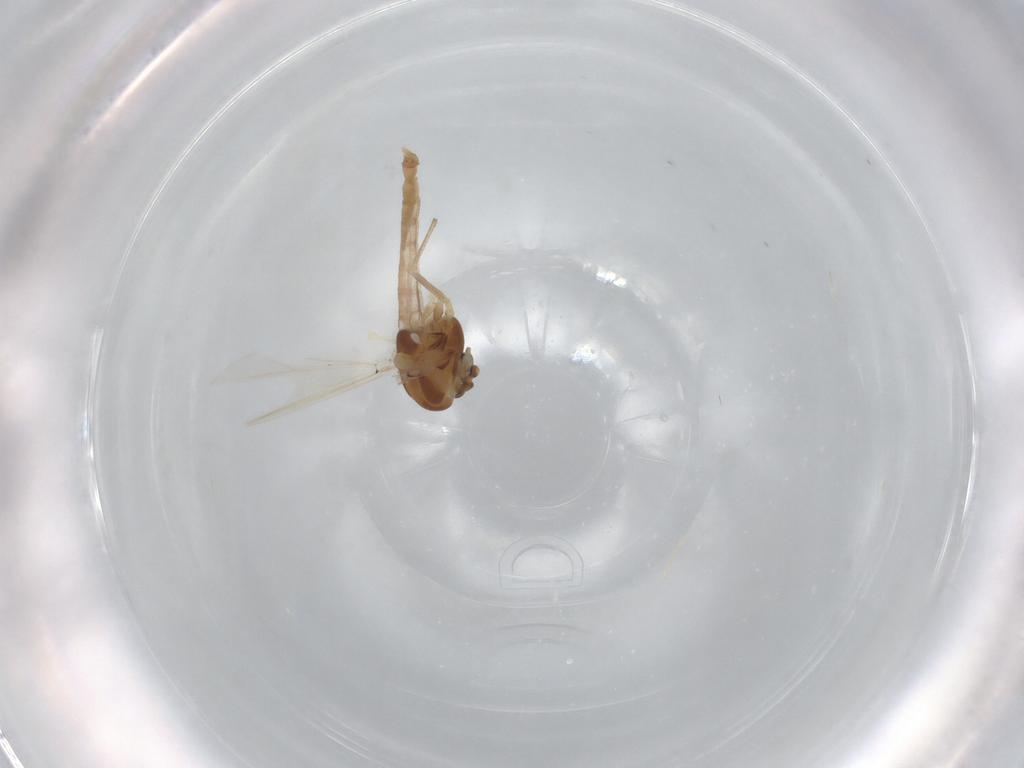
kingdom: Animalia
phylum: Arthropoda
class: Insecta
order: Diptera
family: Chironomidae
